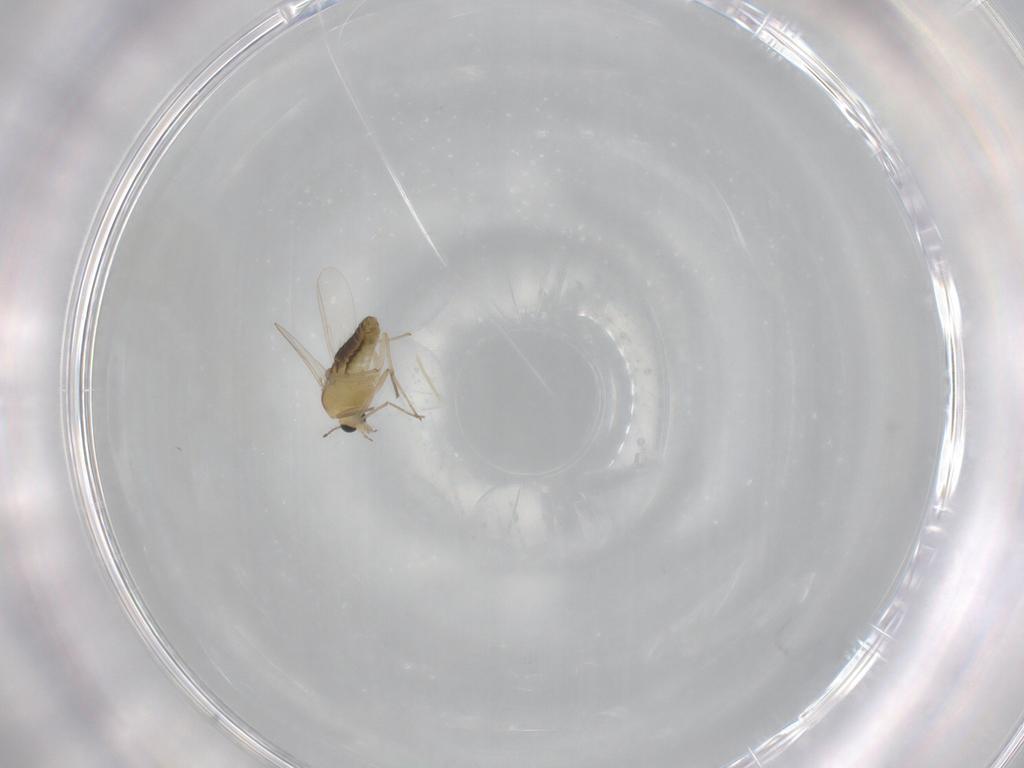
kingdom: Animalia
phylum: Arthropoda
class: Insecta
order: Diptera
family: Chironomidae
